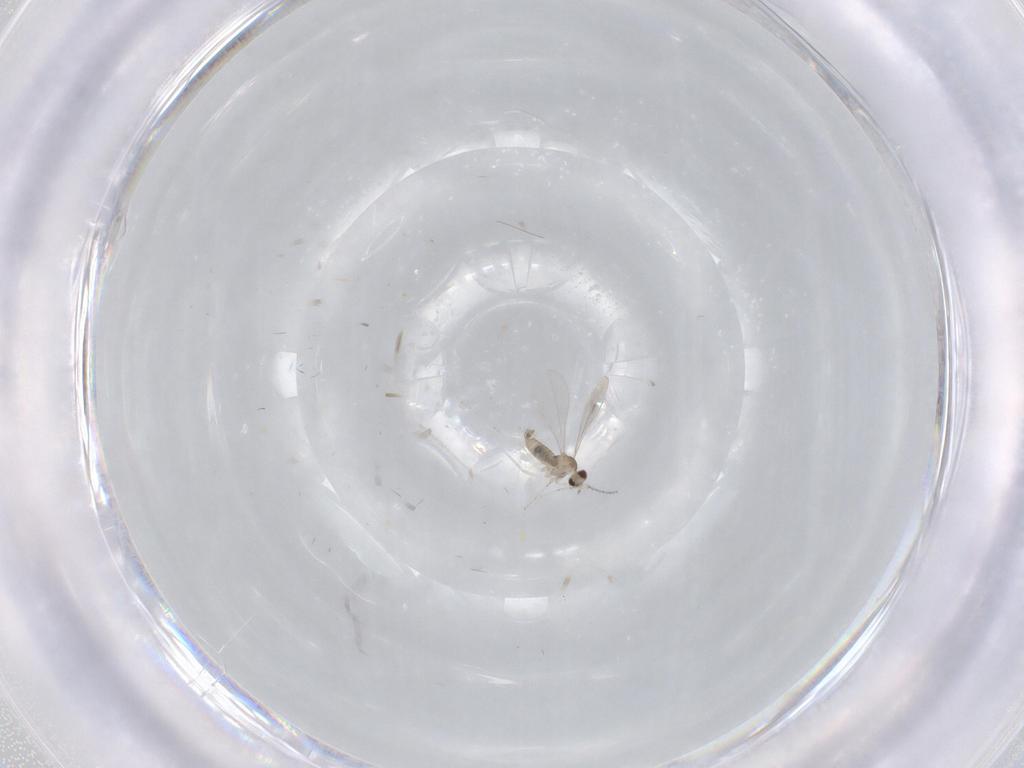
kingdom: Animalia
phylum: Arthropoda
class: Insecta
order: Diptera
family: Cecidomyiidae
